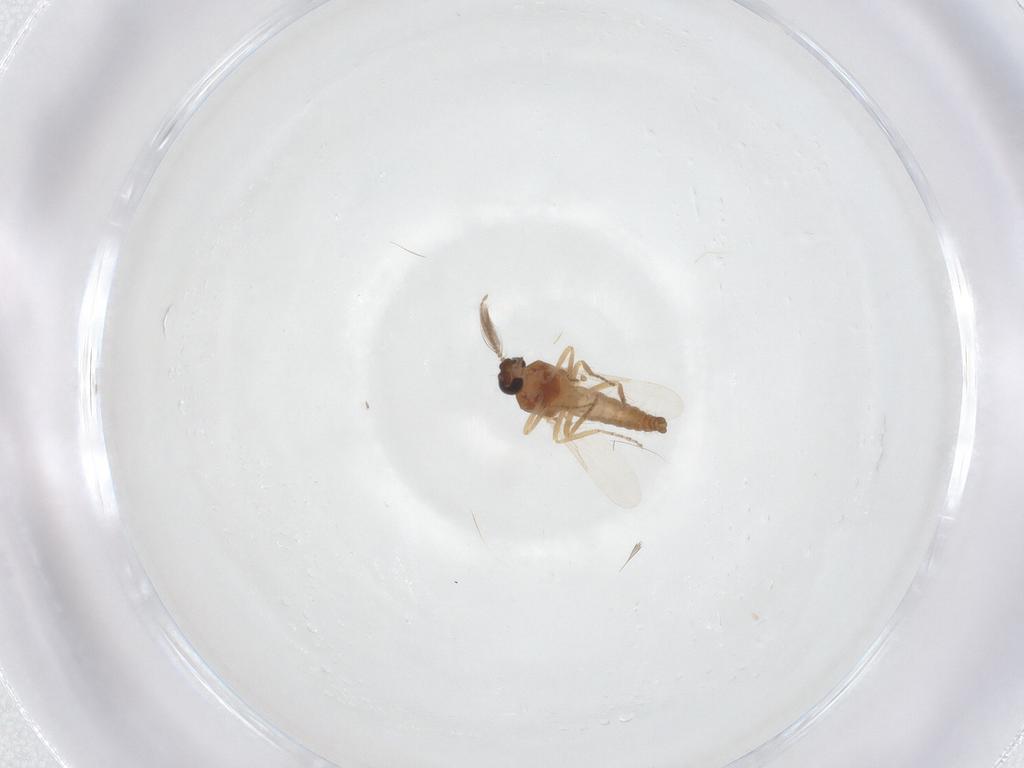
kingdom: Animalia
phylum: Arthropoda
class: Insecta
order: Diptera
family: Ceratopogonidae
